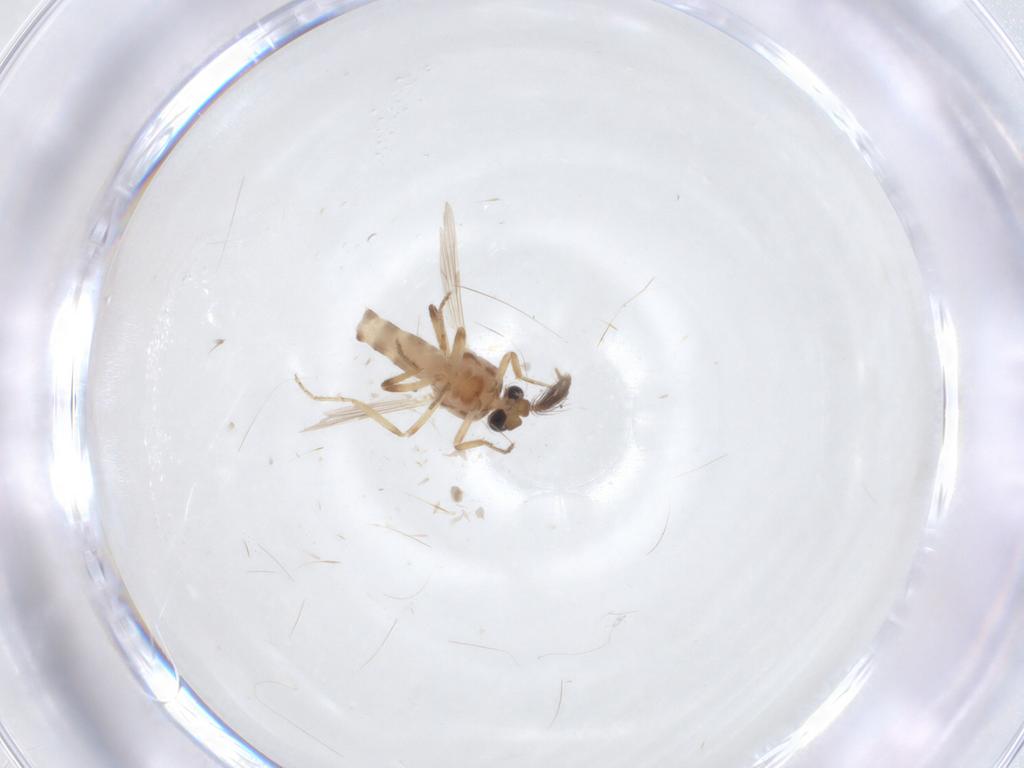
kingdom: Animalia
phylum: Arthropoda
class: Insecta
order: Diptera
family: Ceratopogonidae
